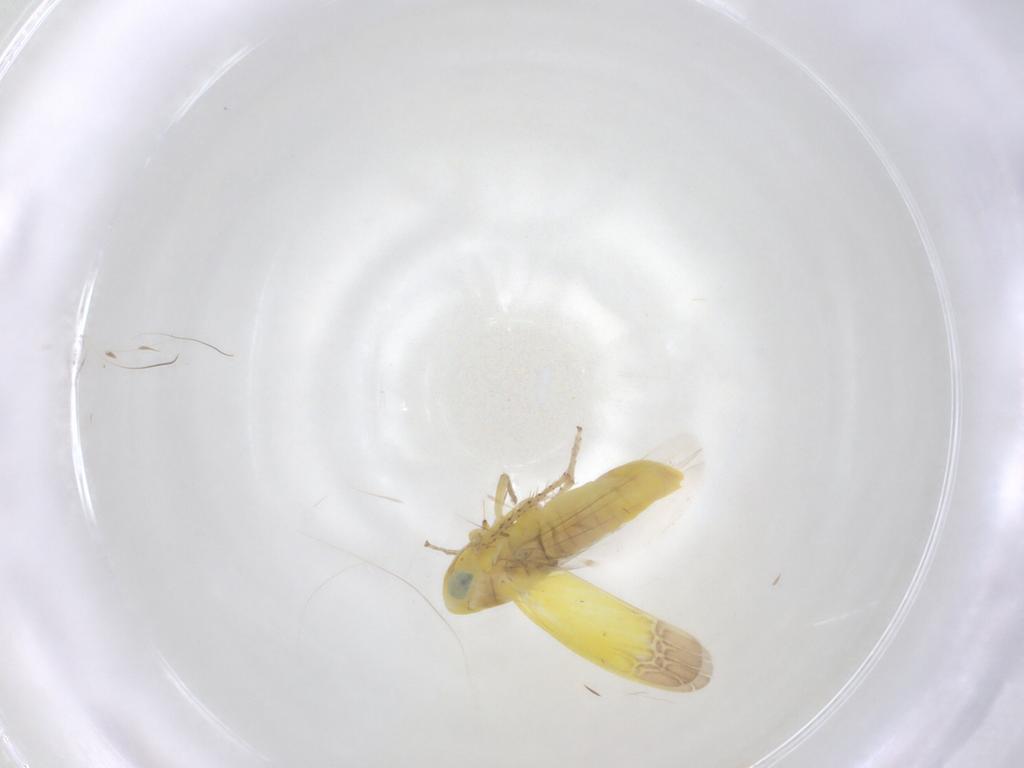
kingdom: Animalia
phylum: Arthropoda
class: Insecta
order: Hemiptera
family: Cicadellidae
